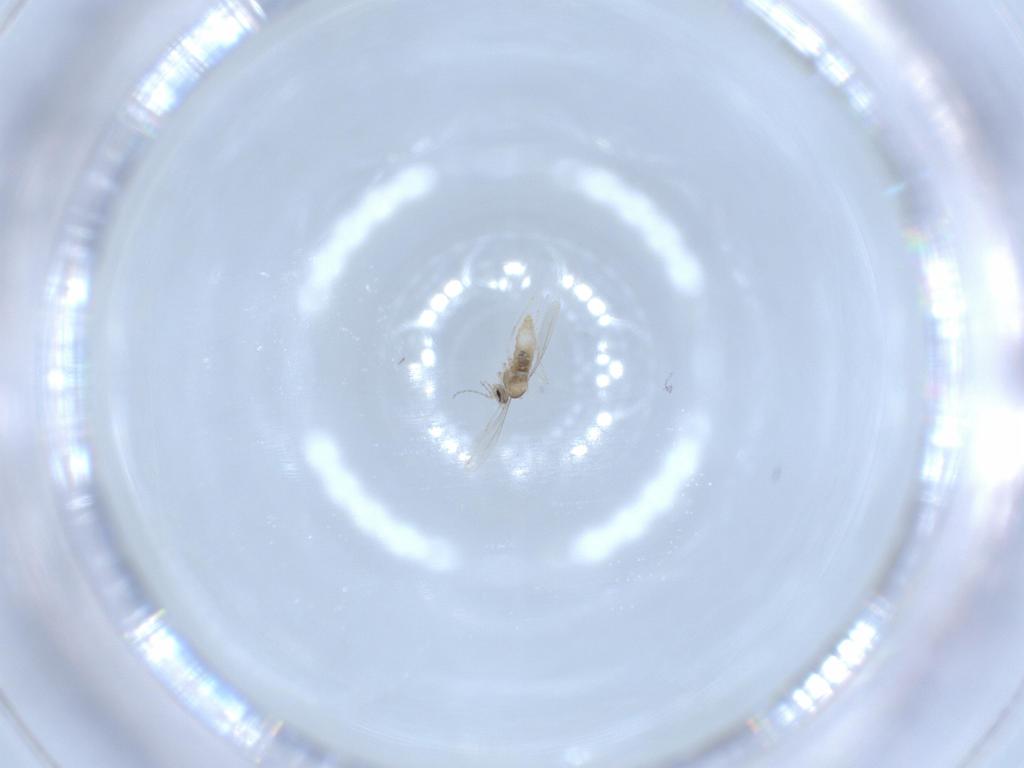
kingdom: Animalia
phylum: Arthropoda
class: Insecta
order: Diptera
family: Cecidomyiidae
